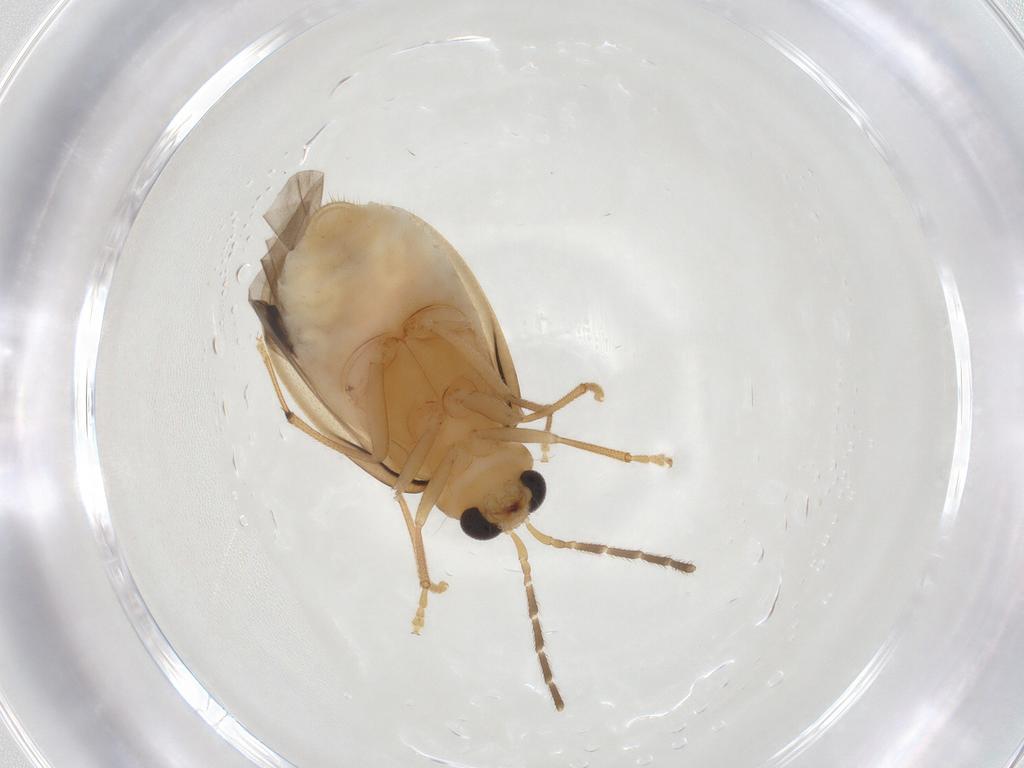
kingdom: Animalia
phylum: Arthropoda
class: Insecta
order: Coleoptera
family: Chrysomelidae
